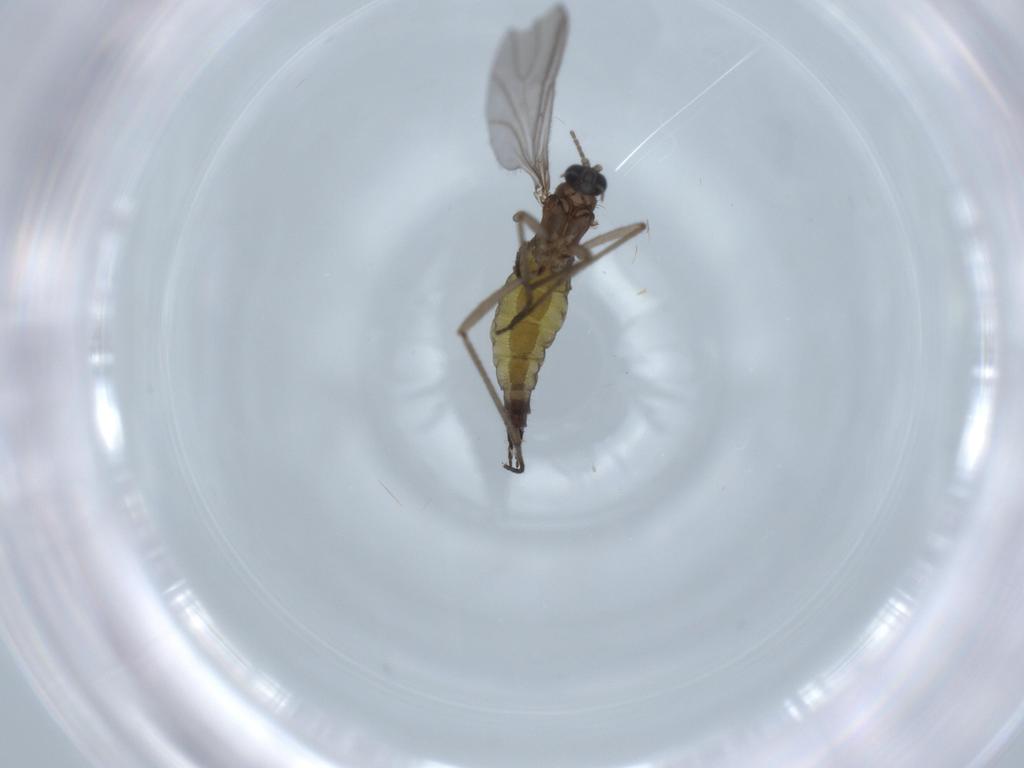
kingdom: Animalia
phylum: Arthropoda
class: Insecta
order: Diptera
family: Sciaridae
